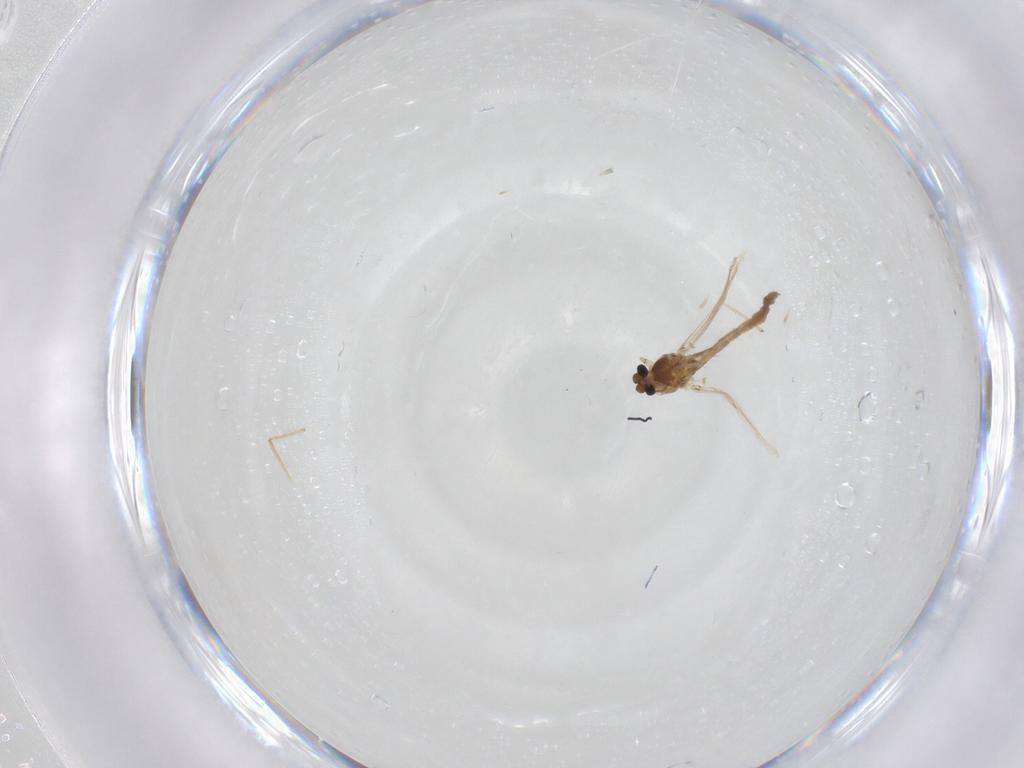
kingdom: Animalia
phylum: Arthropoda
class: Insecta
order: Diptera
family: Chironomidae
